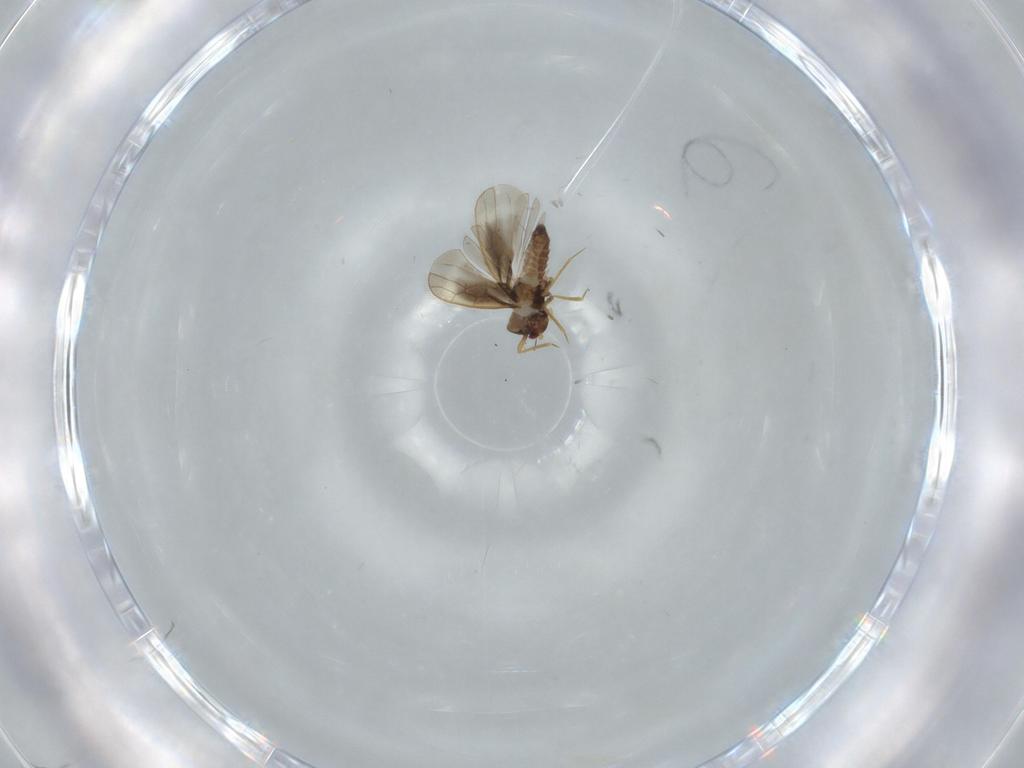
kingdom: Animalia
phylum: Arthropoda
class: Insecta
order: Hemiptera
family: Schizopteridae
